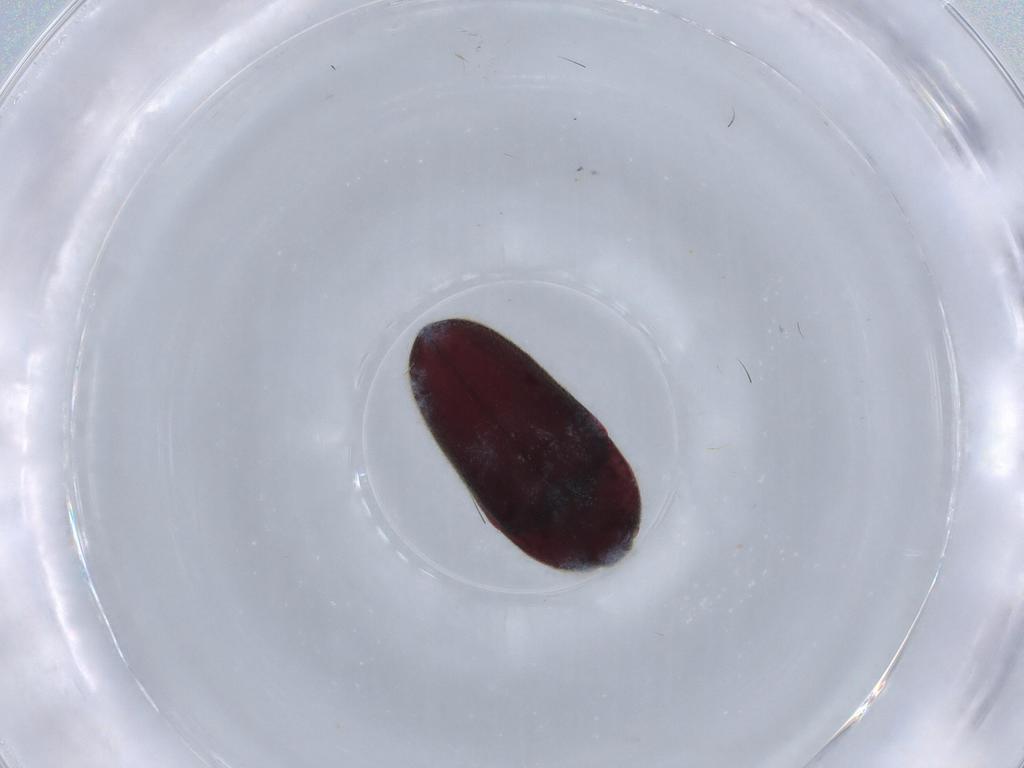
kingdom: Animalia
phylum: Arthropoda
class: Insecta
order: Coleoptera
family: Throscidae
